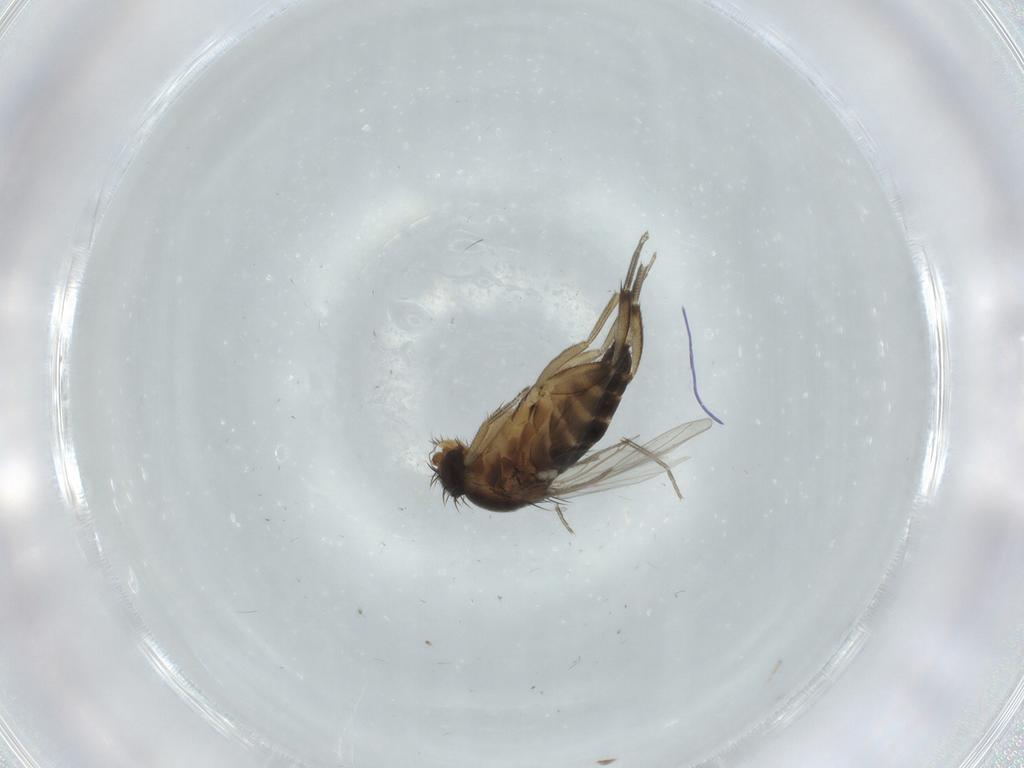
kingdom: Animalia
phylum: Arthropoda
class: Insecta
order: Diptera
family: Phoridae
